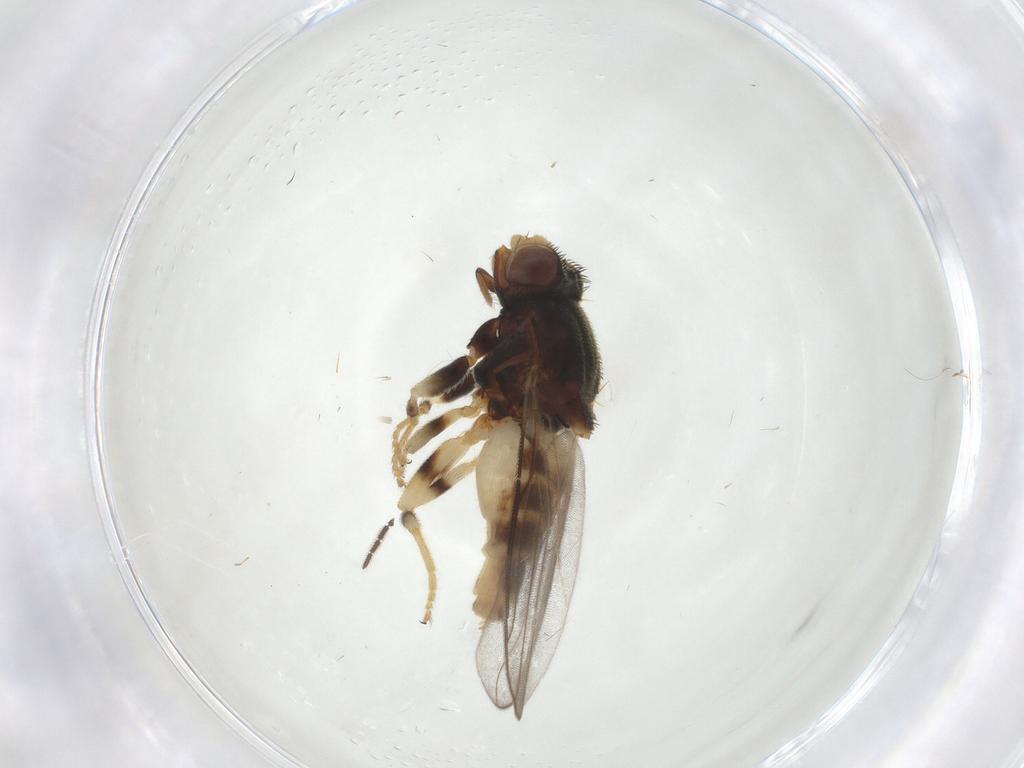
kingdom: Animalia
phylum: Arthropoda
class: Insecta
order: Diptera
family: Chloropidae
